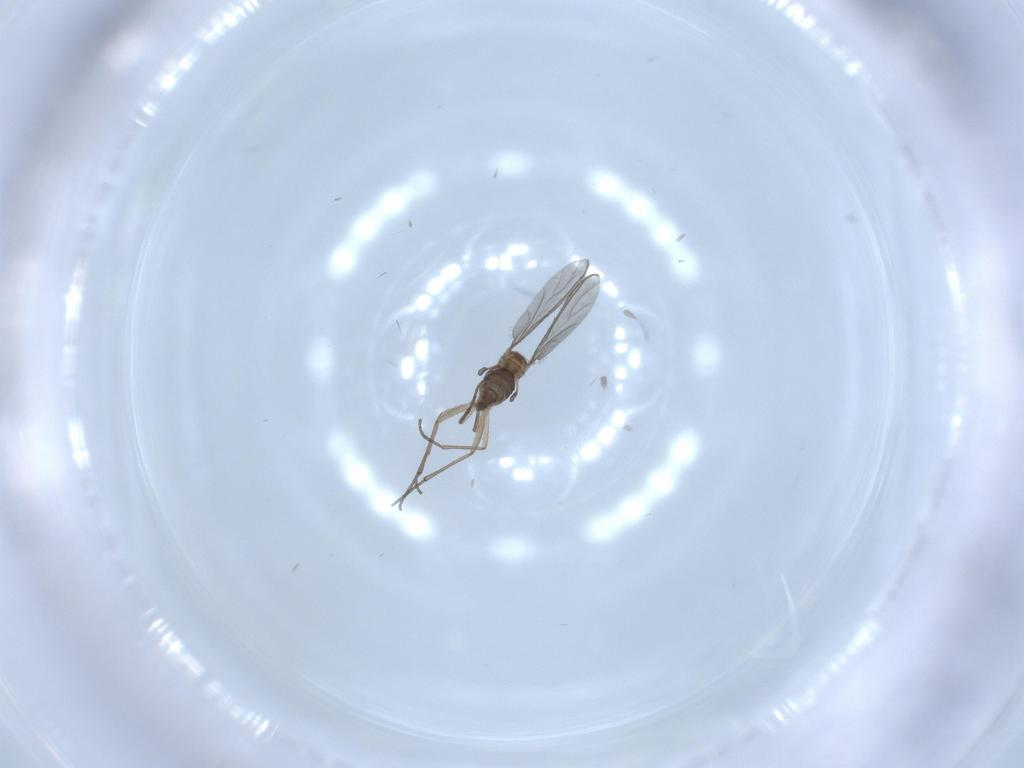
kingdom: Animalia
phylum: Arthropoda
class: Insecta
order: Diptera
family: Sciaridae
